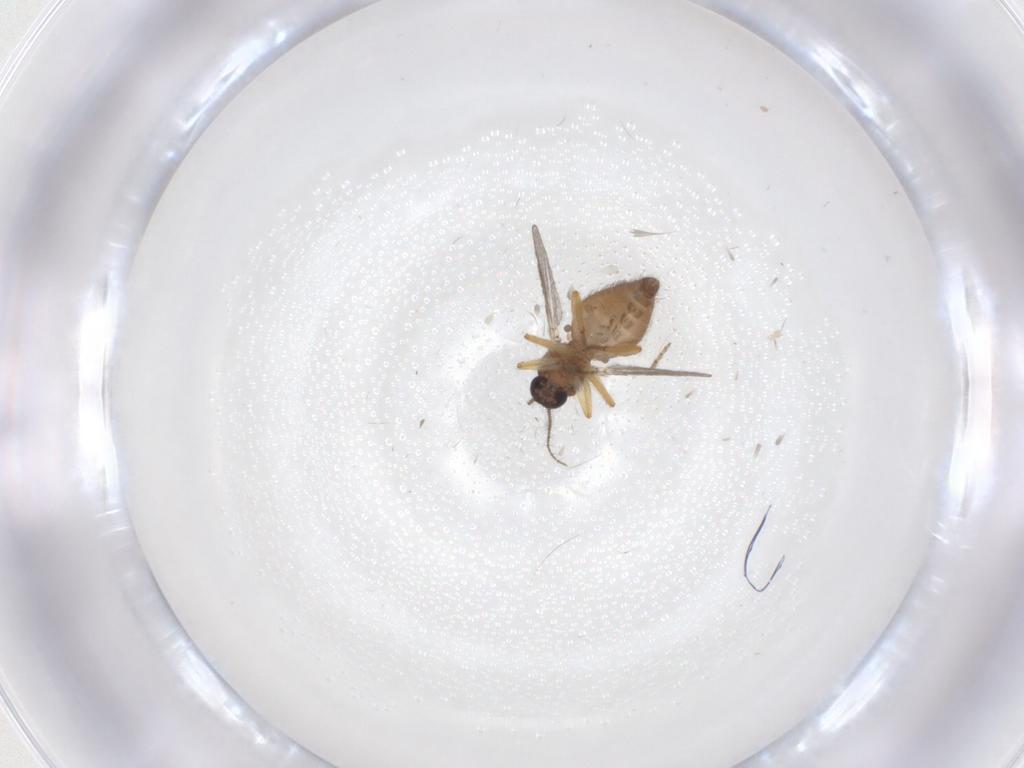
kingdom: Animalia
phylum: Arthropoda
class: Insecta
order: Diptera
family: Ceratopogonidae
